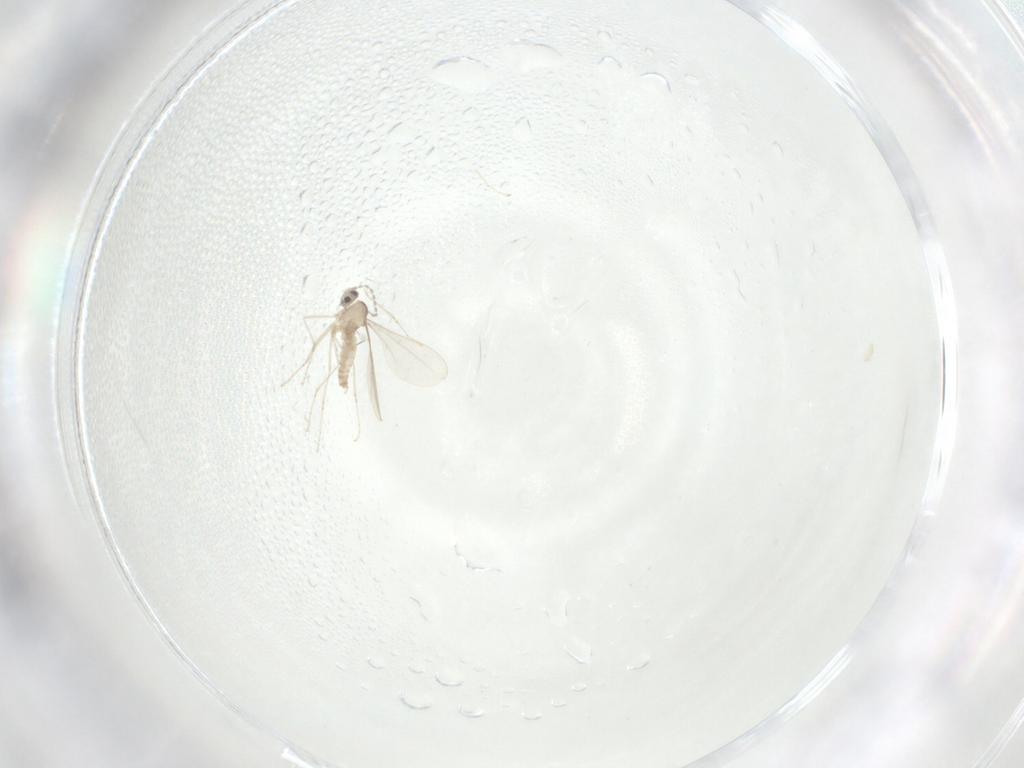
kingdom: Animalia
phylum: Arthropoda
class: Insecta
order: Diptera
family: Cecidomyiidae
